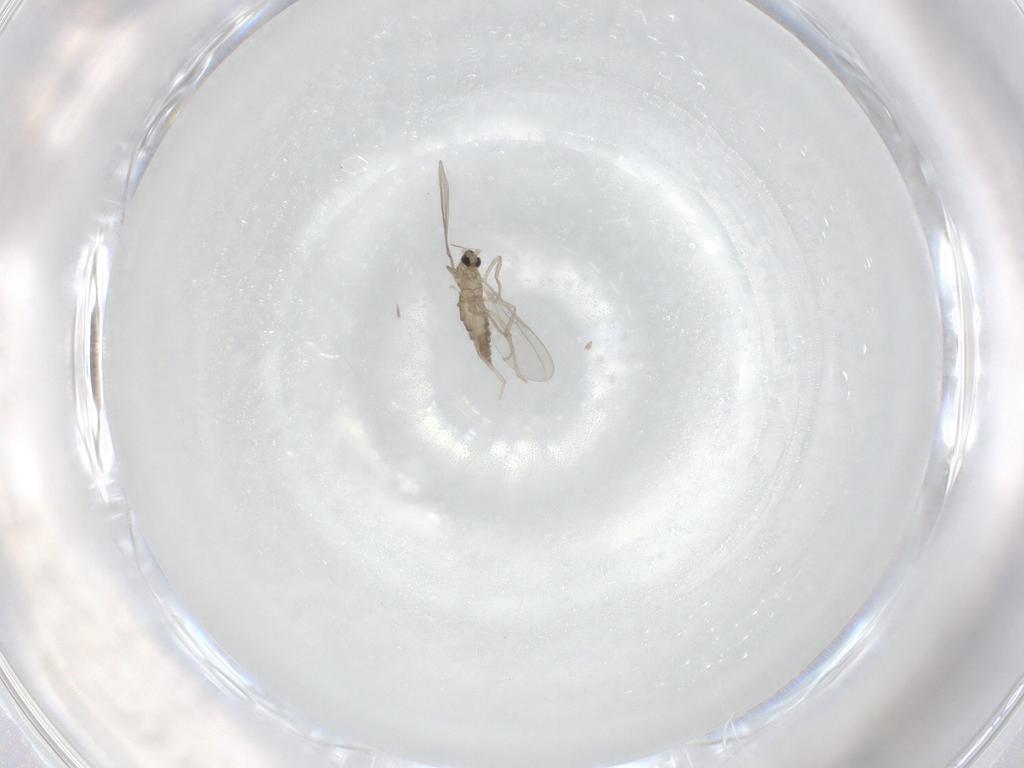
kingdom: Animalia
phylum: Arthropoda
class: Insecta
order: Diptera
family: Cecidomyiidae
